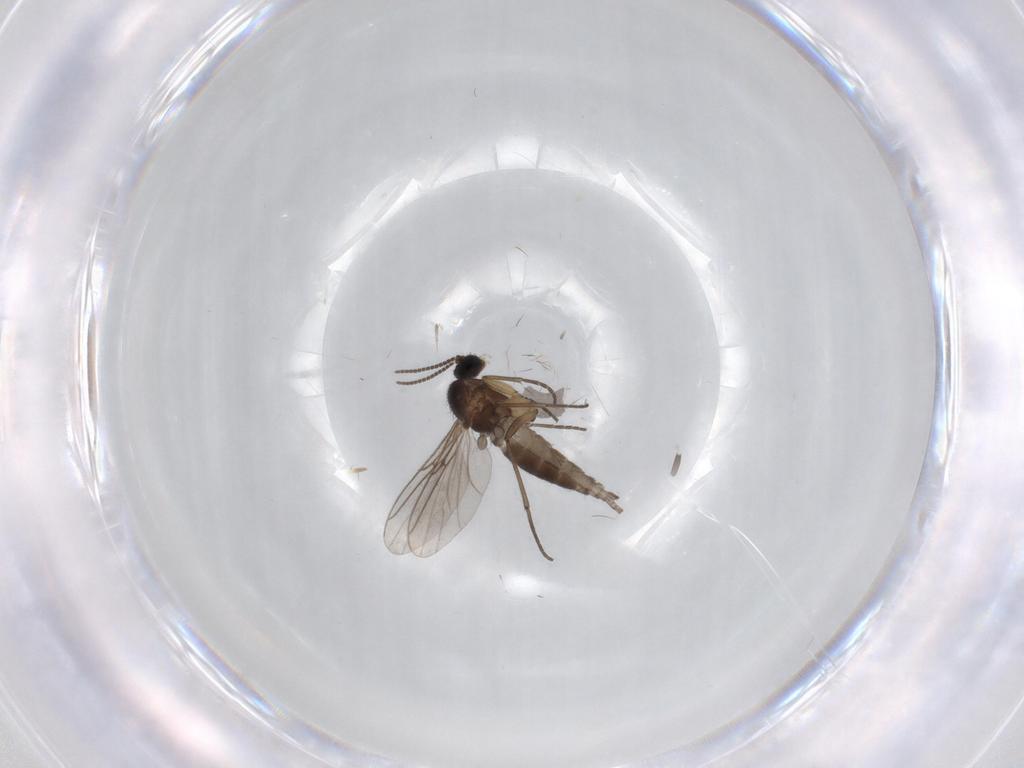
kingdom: Animalia
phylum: Arthropoda
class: Insecta
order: Diptera
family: Sciaridae
